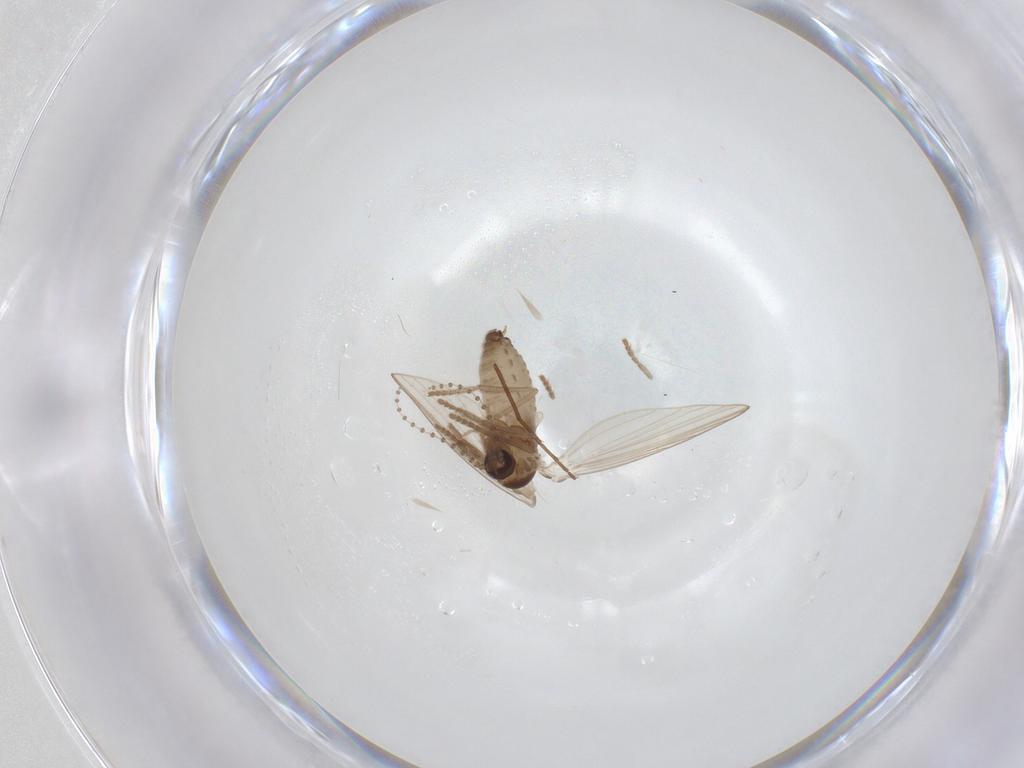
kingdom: Animalia
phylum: Arthropoda
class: Insecta
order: Diptera
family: Psychodidae
